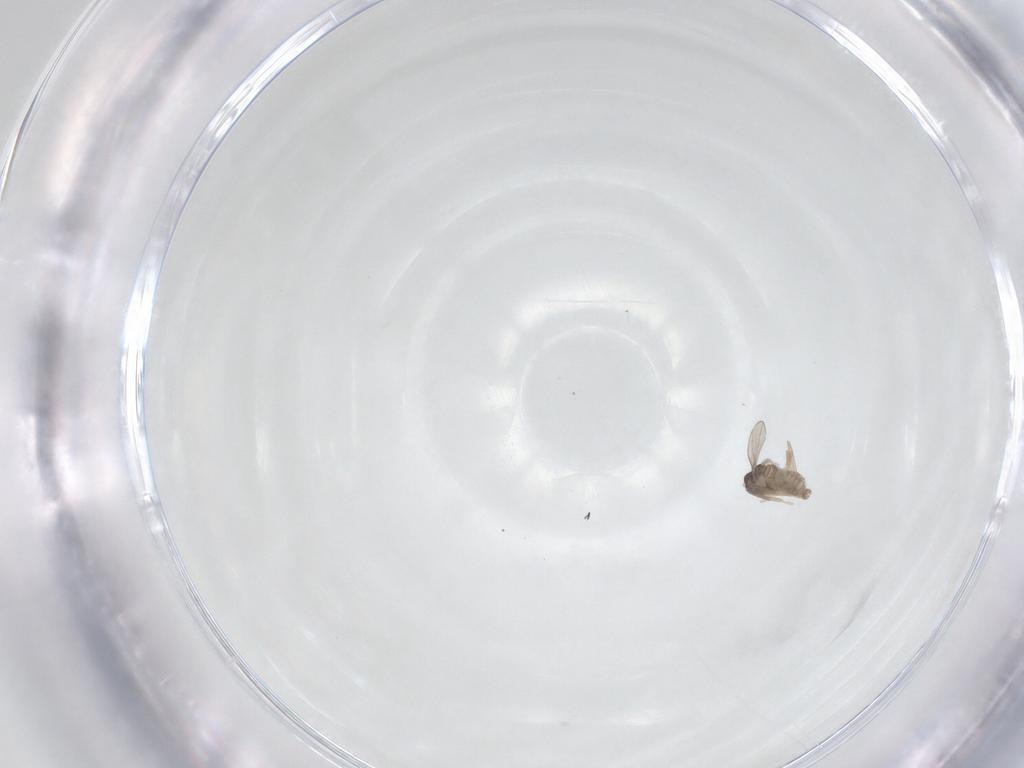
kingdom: Animalia
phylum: Arthropoda
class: Insecta
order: Diptera
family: Cecidomyiidae
